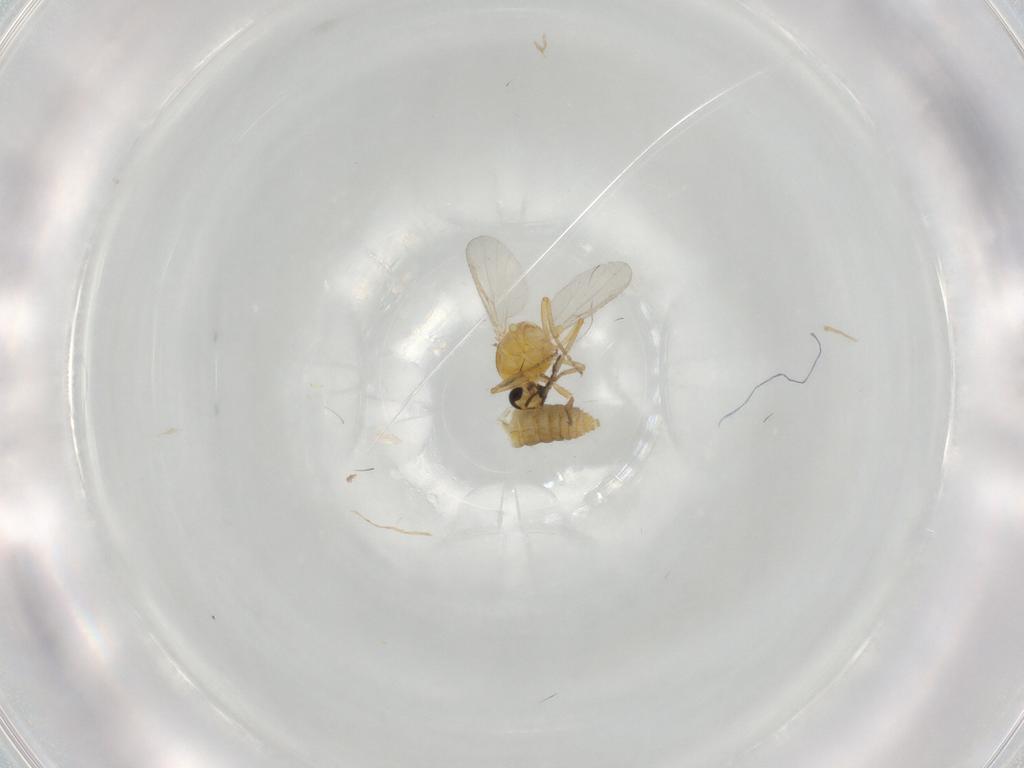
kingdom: Animalia
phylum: Arthropoda
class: Insecta
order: Diptera
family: Ceratopogonidae
